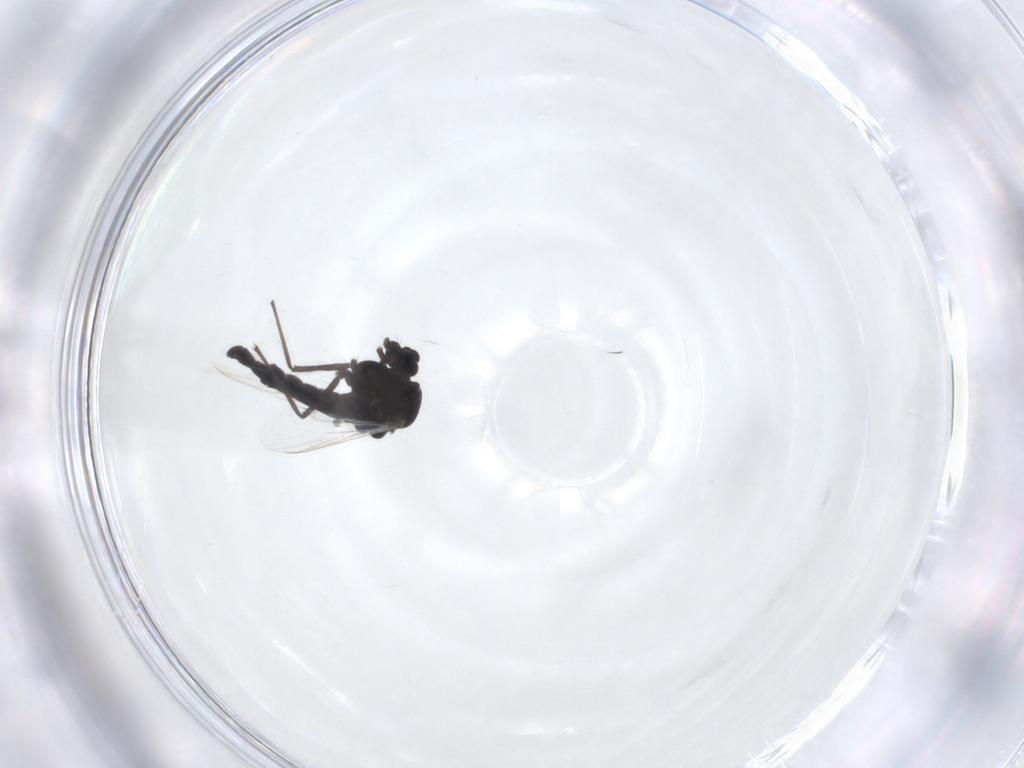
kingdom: Animalia
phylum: Arthropoda
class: Insecta
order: Diptera
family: Chironomidae
